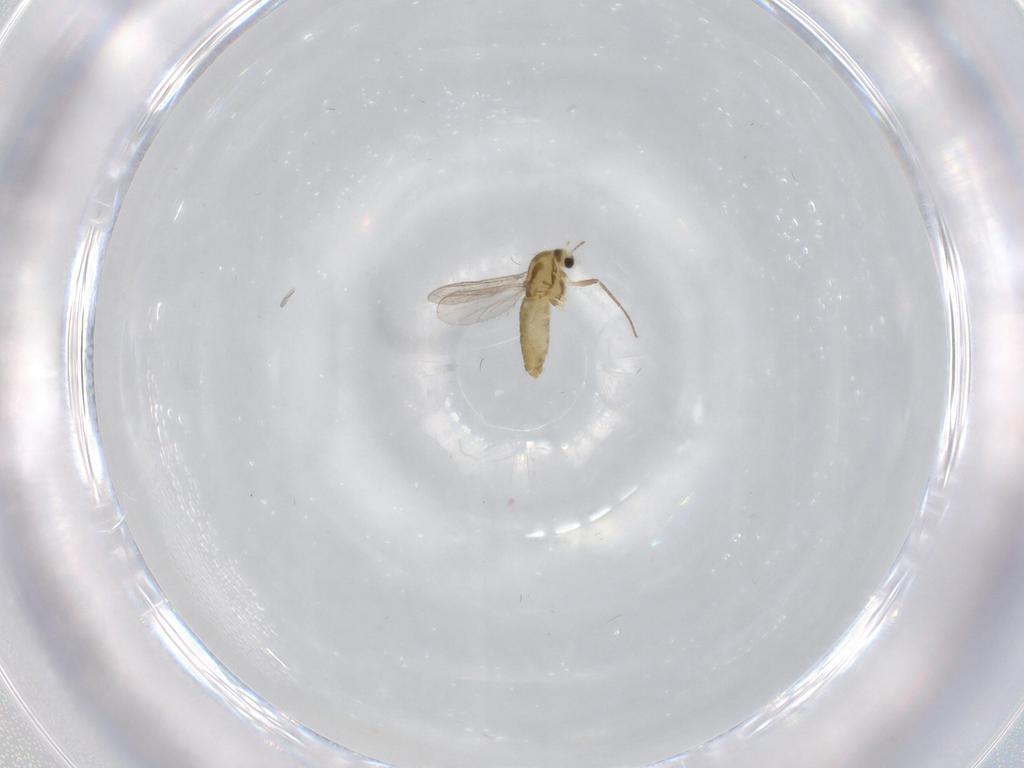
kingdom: Animalia
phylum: Arthropoda
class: Insecta
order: Diptera
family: Chironomidae
